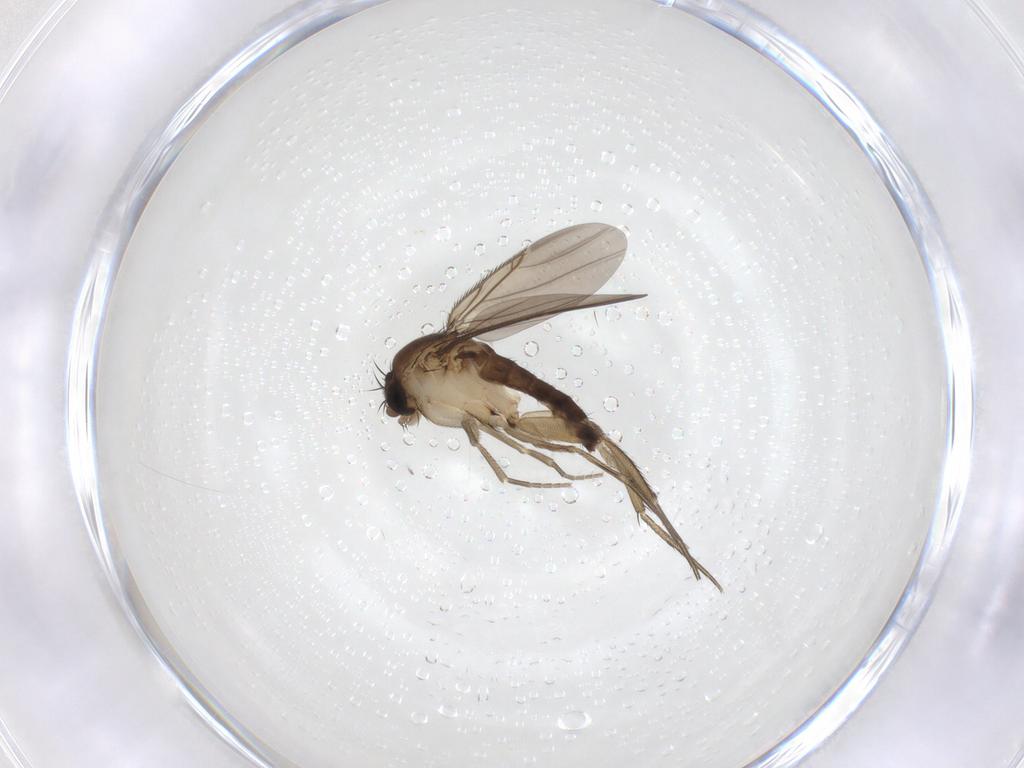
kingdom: Animalia
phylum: Arthropoda
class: Insecta
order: Diptera
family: Phoridae
